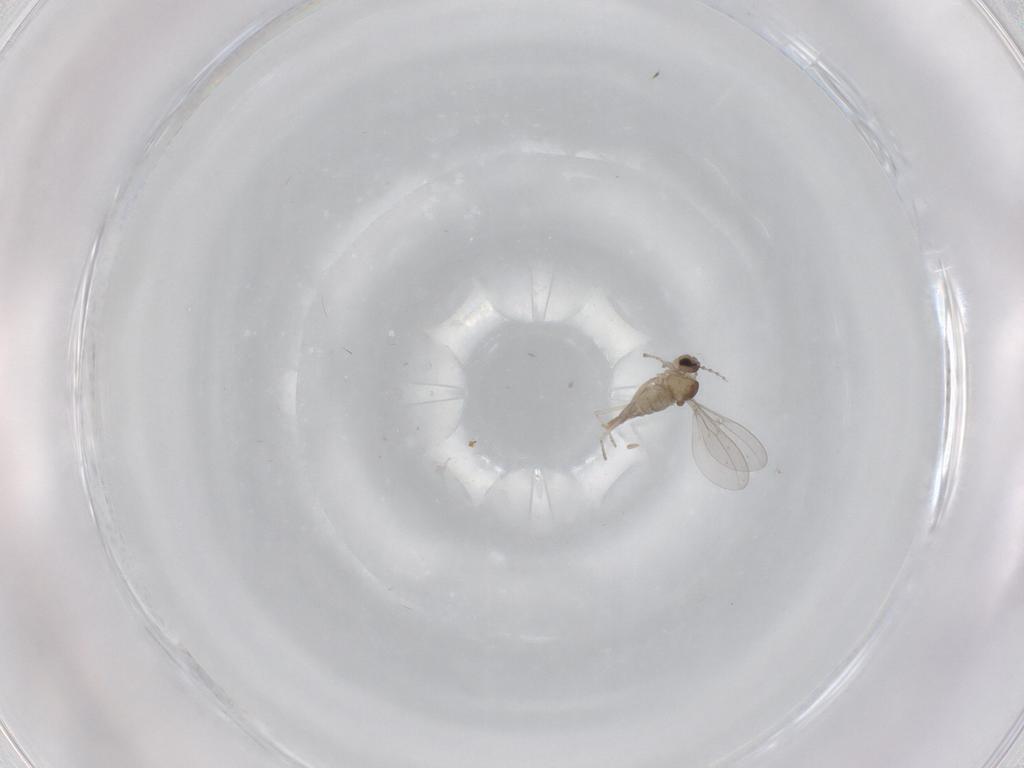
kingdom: Animalia
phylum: Arthropoda
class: Insecta
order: Diptera
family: Cecidomyiidae
